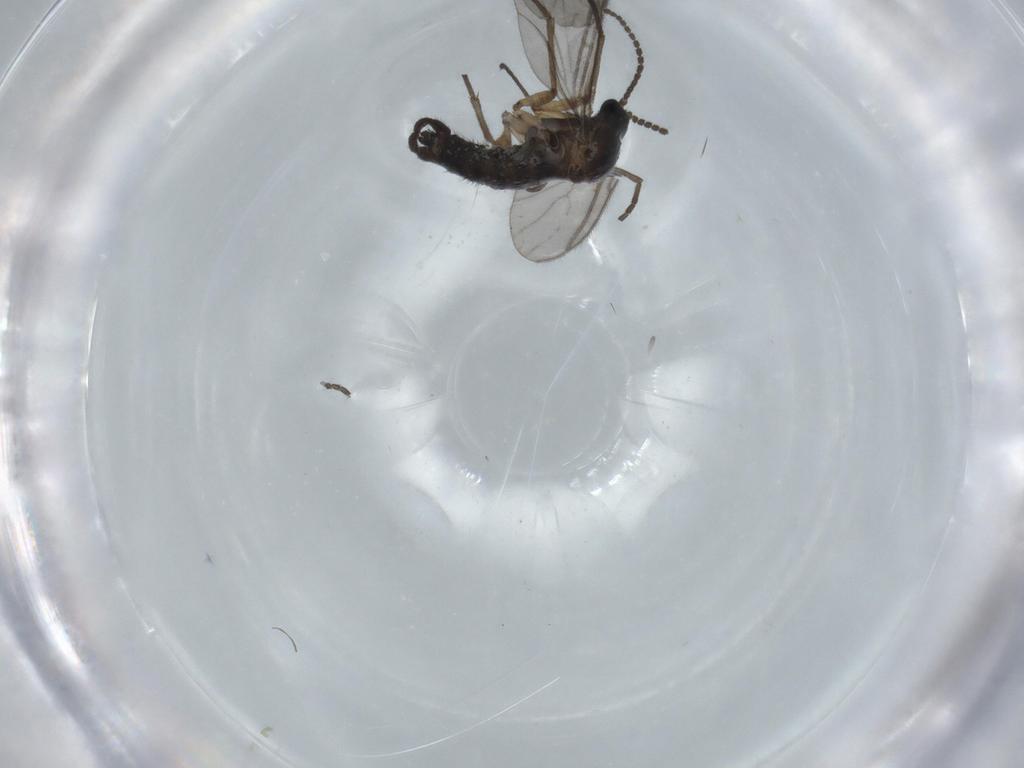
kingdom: Animalia
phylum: Arthropoda
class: Insecta
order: Diptera
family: Sciaridae
